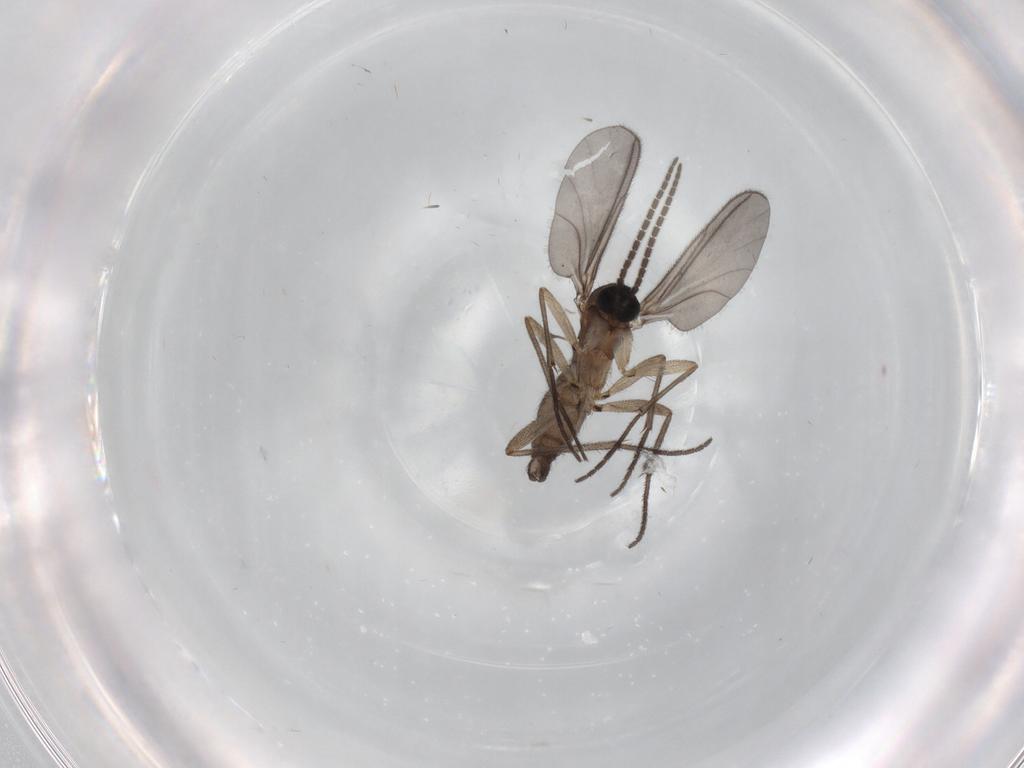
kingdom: Animalia
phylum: Arthropoda
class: Insecta
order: Diptera
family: Sciaridae
